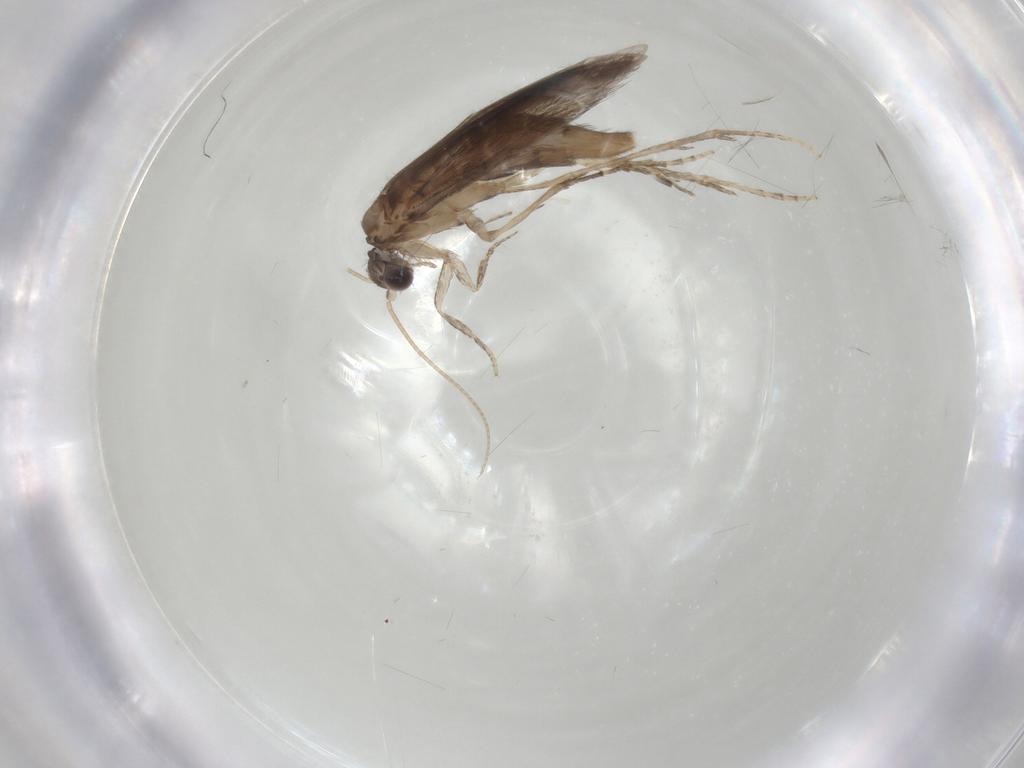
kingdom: Animalia
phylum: Arthropoda
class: Insecta
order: Trichoptera
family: Hydroptilidae
